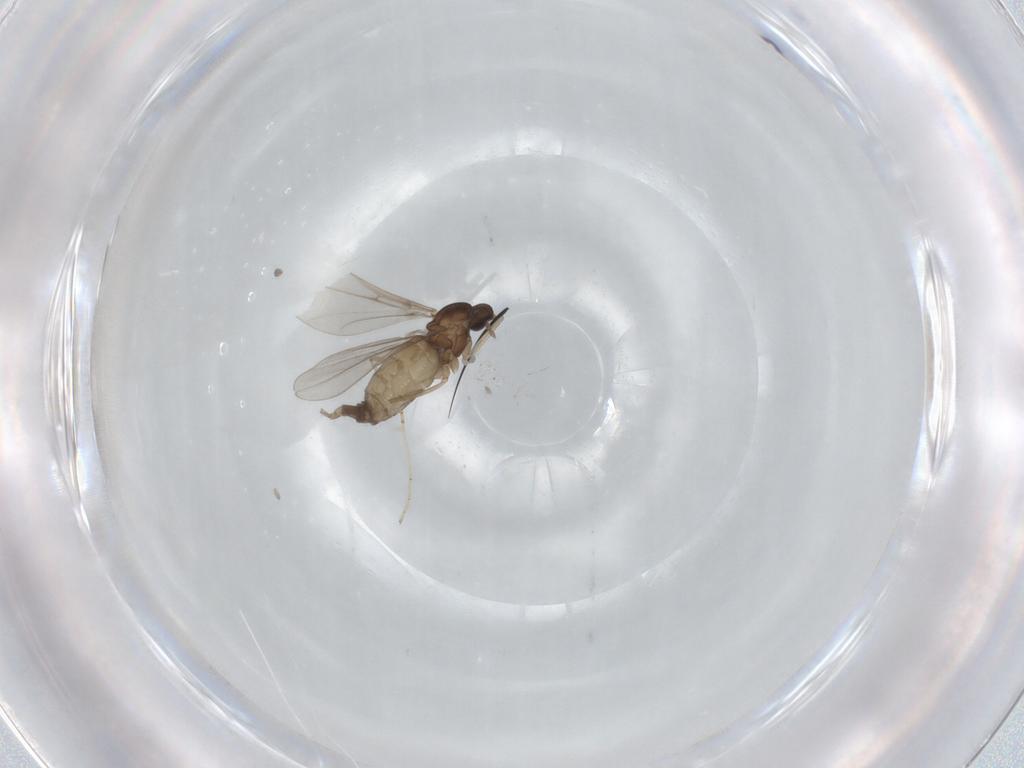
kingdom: Animalia
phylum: Arthropoda
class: Insecta
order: Diptera
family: Cecidomyiidae
